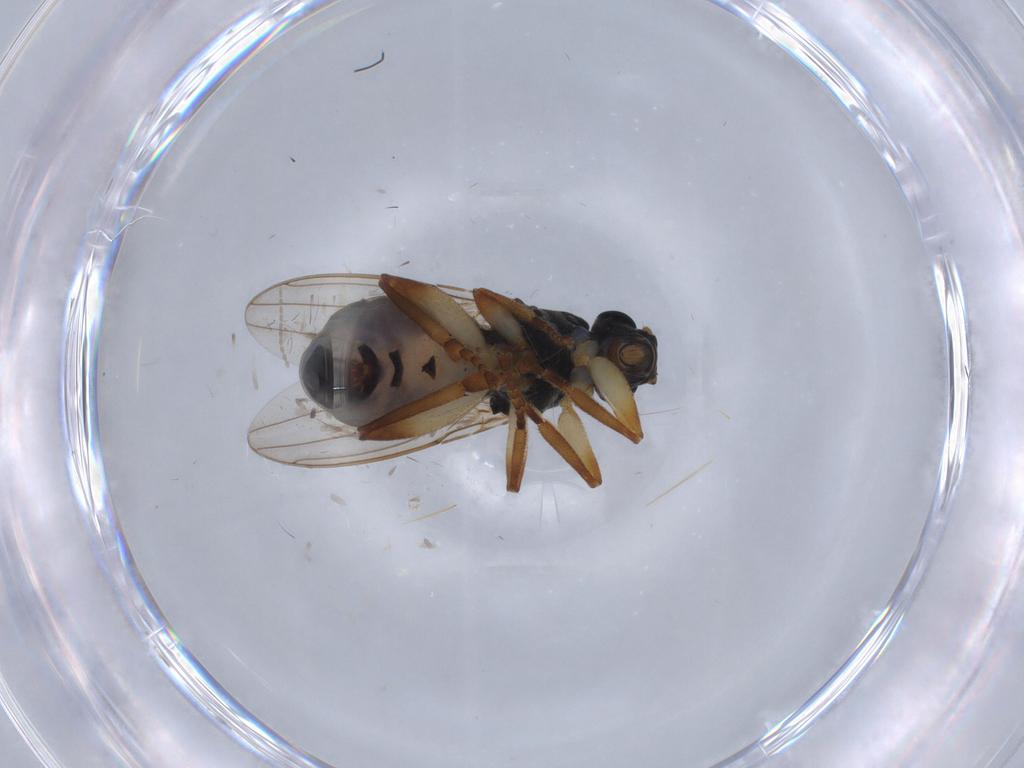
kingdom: Animalia
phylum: Arthropoda
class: Insecta
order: Diptera
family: Cecidomyiidae
